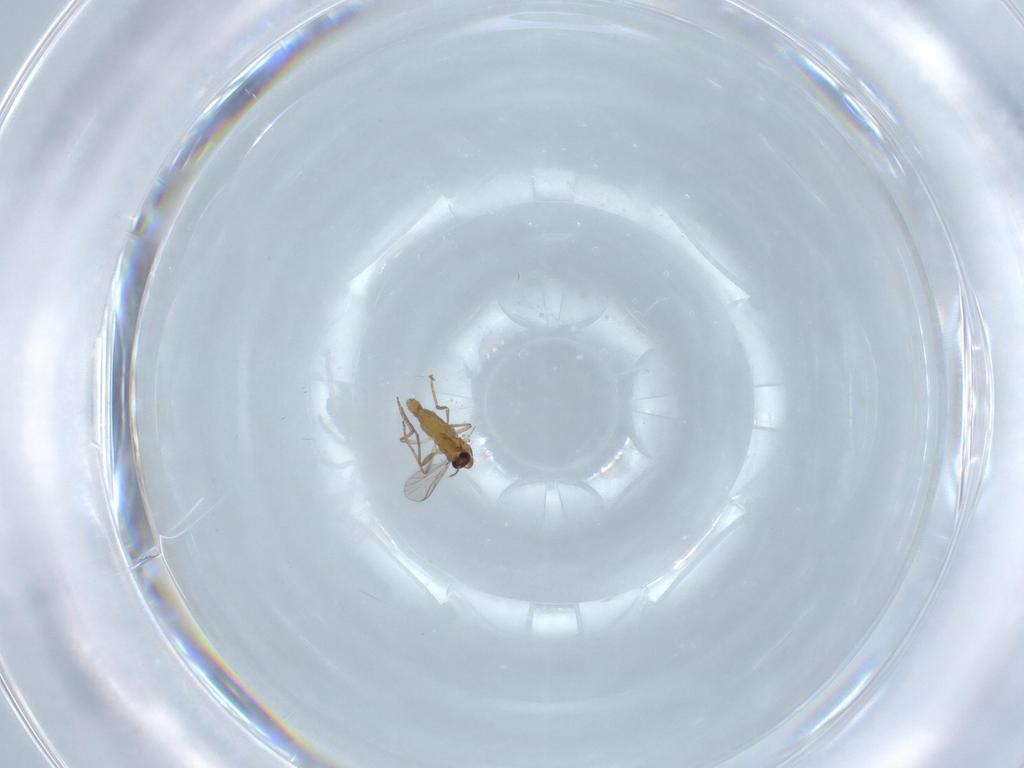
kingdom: Animalia
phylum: Arthropoda
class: Insecta
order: Diptera
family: Chironomidae
